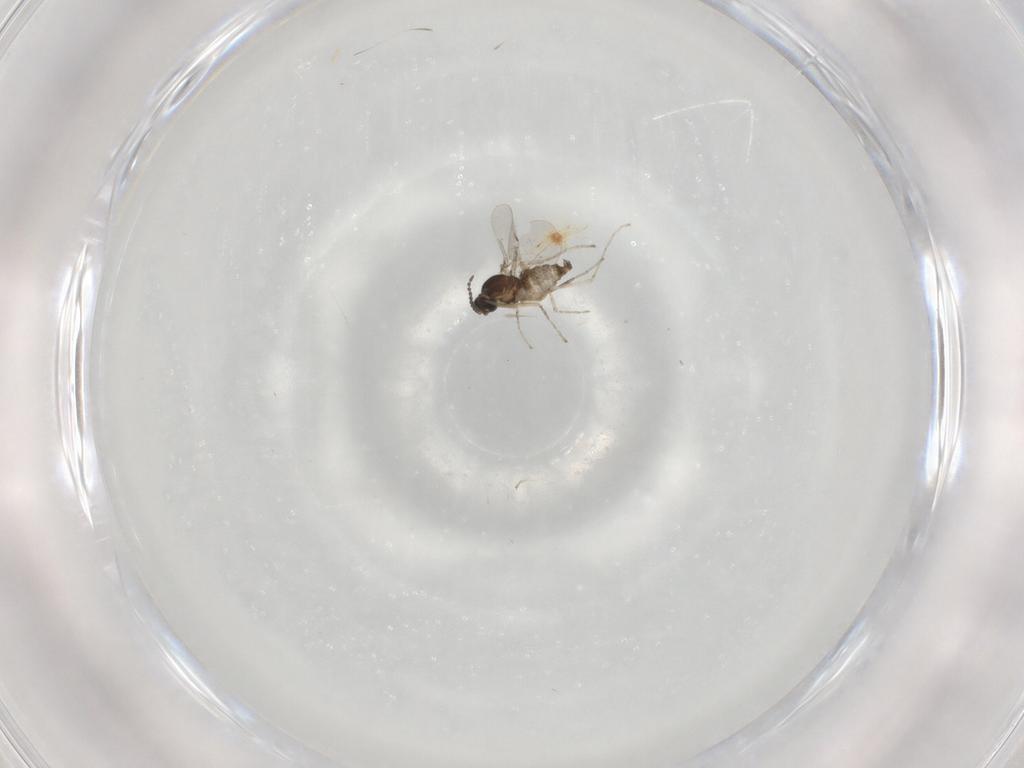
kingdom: Animalia
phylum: Arthropoda
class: Insecta
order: Diptera
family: Cecidomyiidae
